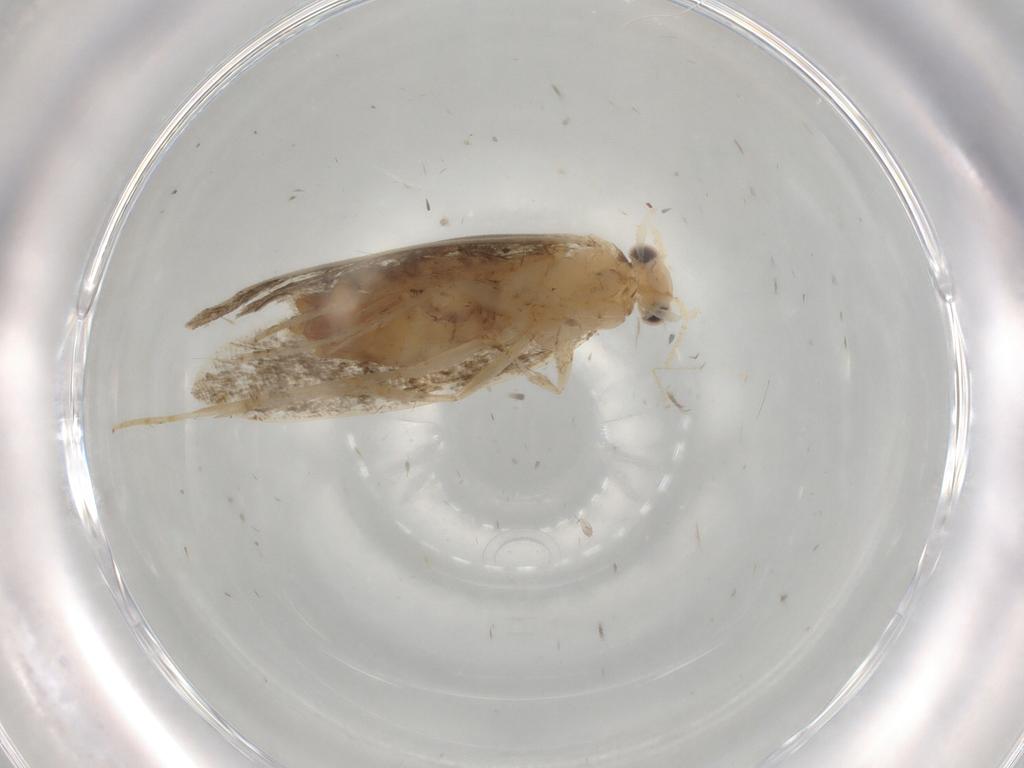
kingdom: Animalia
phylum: Arthropoda
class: Insecta
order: Lepidoptera
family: Tineidae
